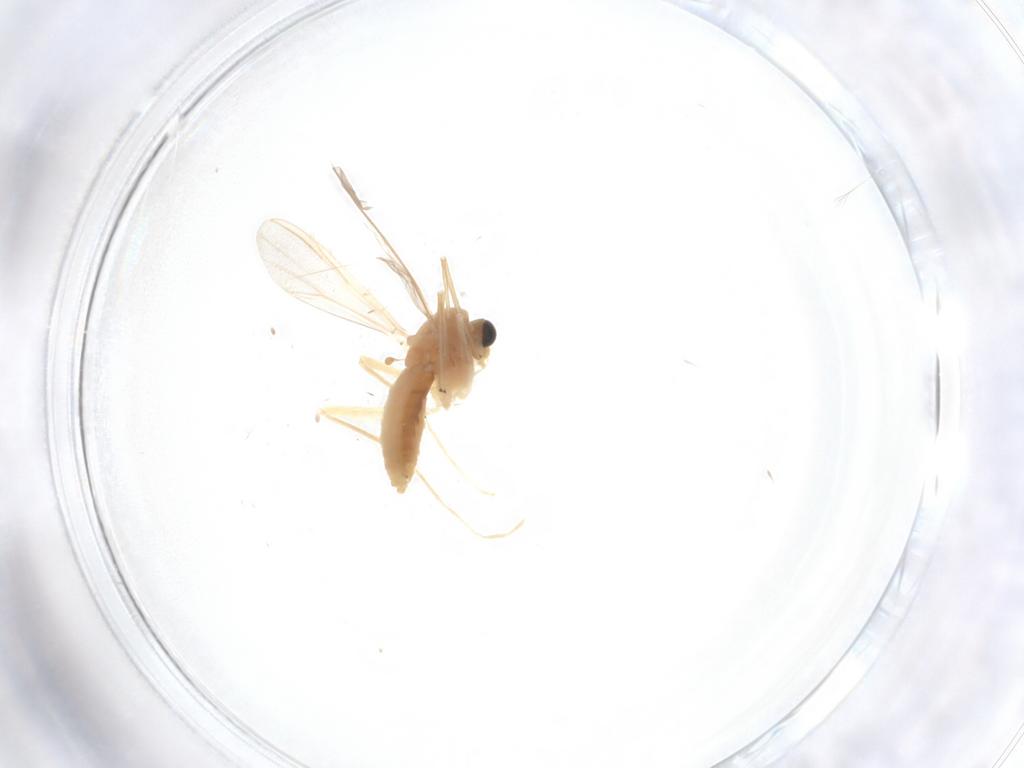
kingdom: Animalia
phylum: Arthropoda
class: Insecta
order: Diptera
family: Chironomidae
